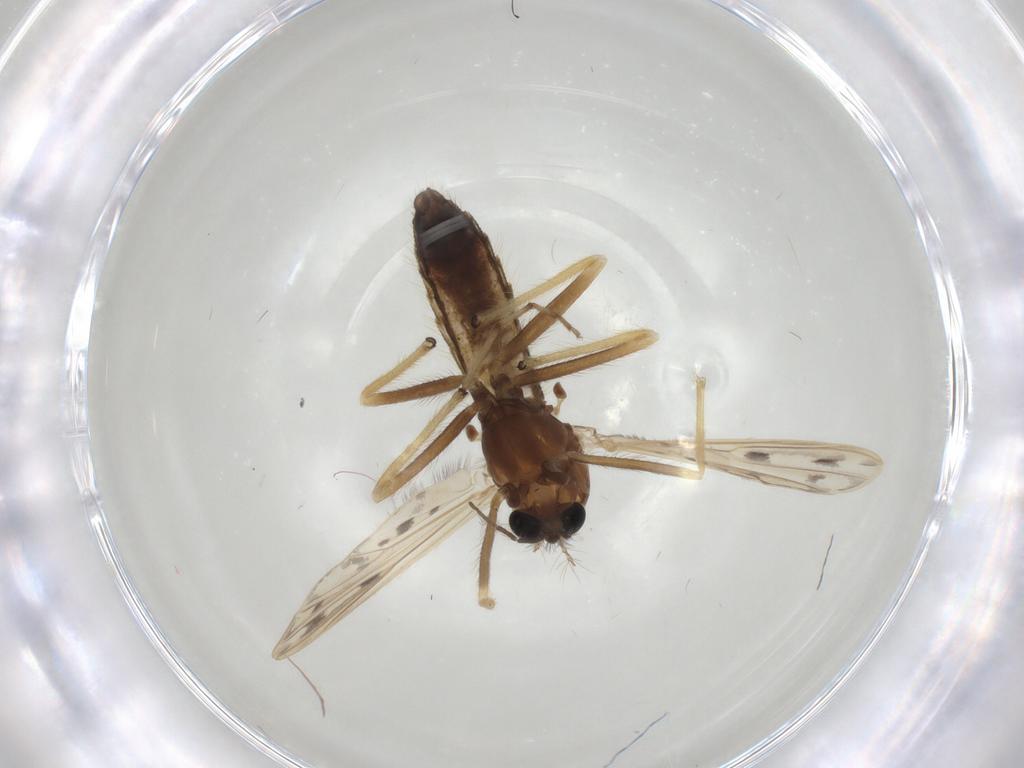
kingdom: Animalia
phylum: Arthropoda
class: Insecta
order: Diptera
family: Chironomidae
